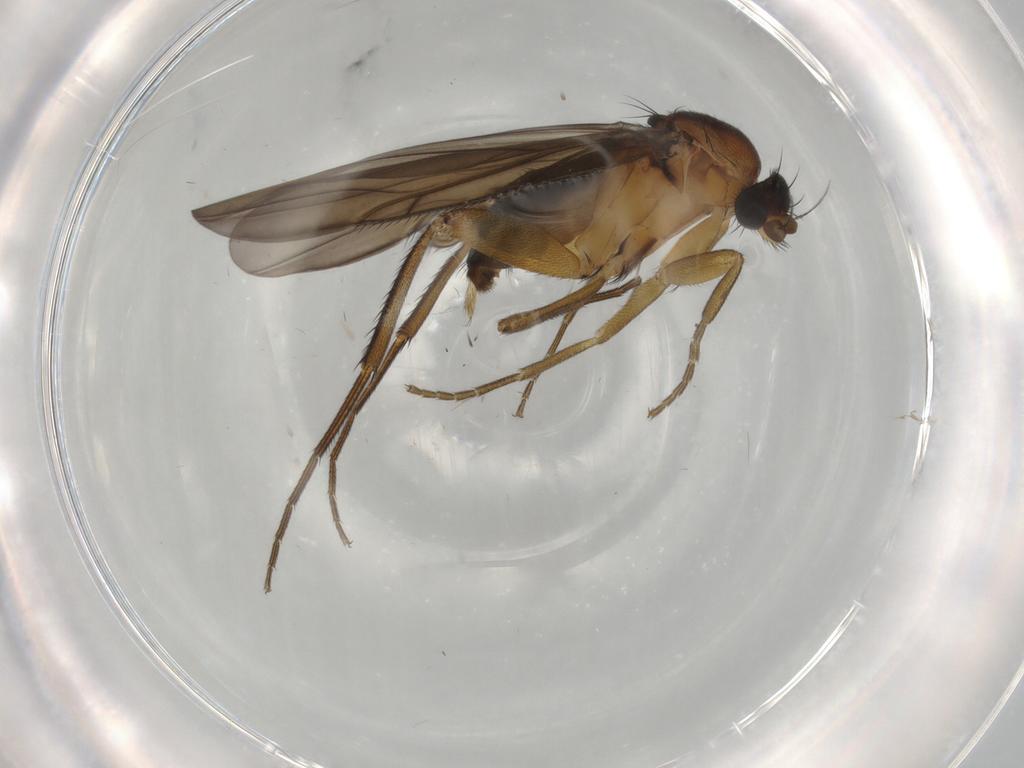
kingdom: Animalia
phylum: Arthropoda
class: Insecta
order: Diptera
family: Phoridae
